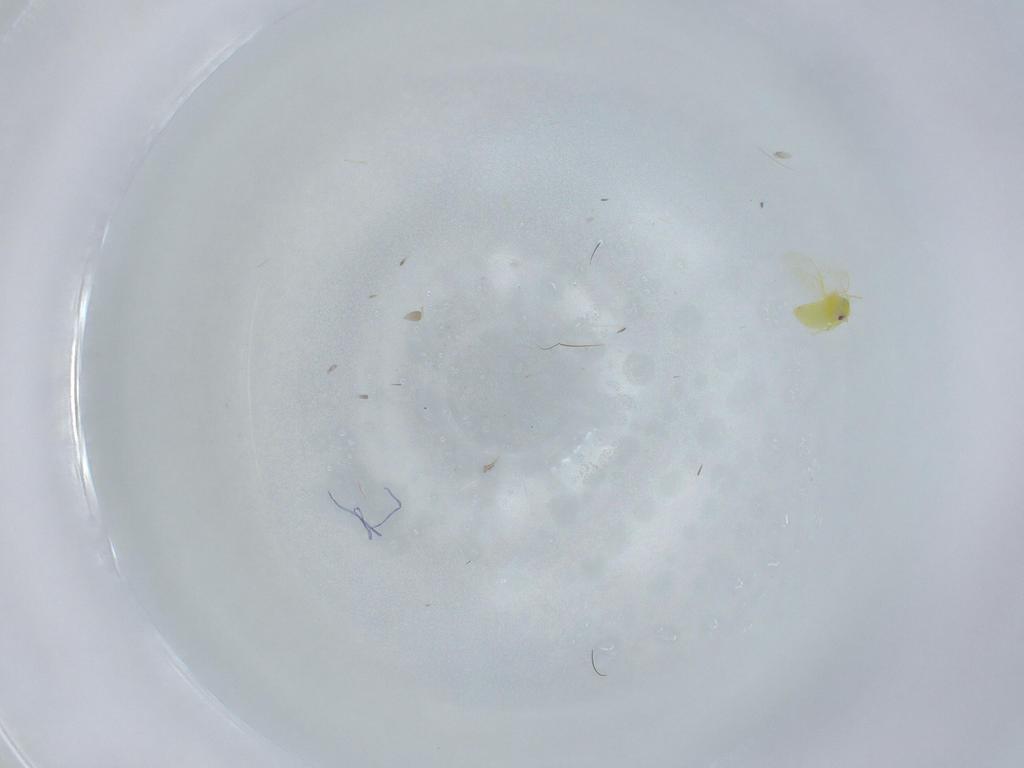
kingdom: Animalia
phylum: Arthropoda
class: Insecta
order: Hemiptera
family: Aleyrodidae
